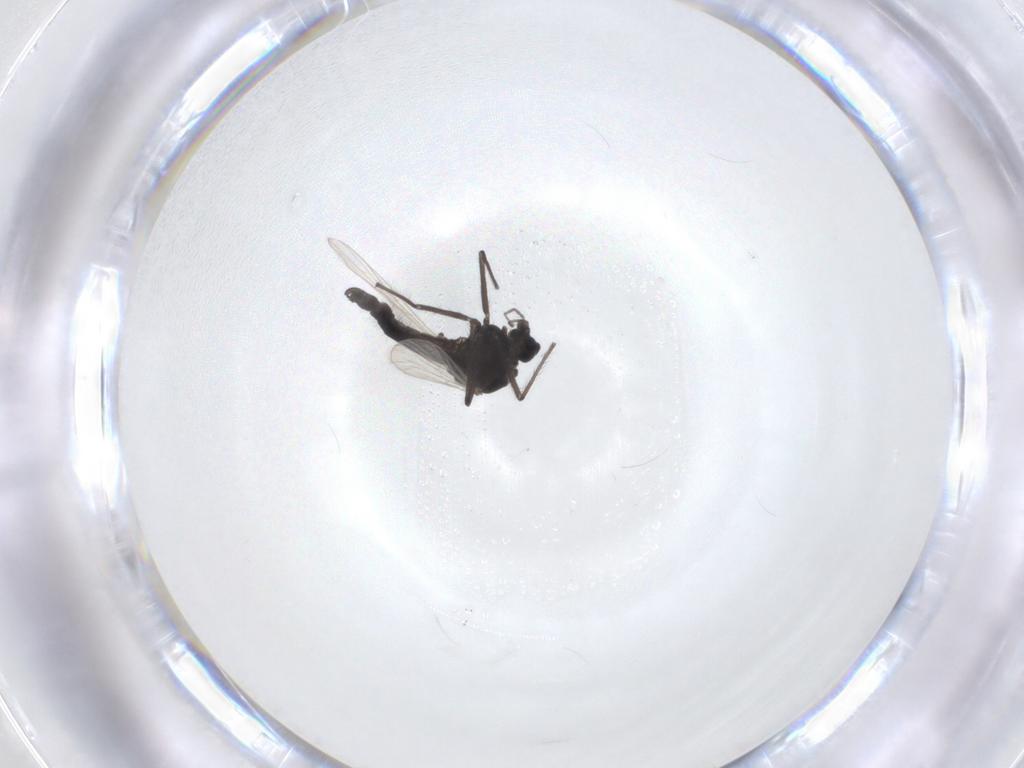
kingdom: Animalia
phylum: Arthropoda
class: Insecta
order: Diptera
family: Chironomidae
